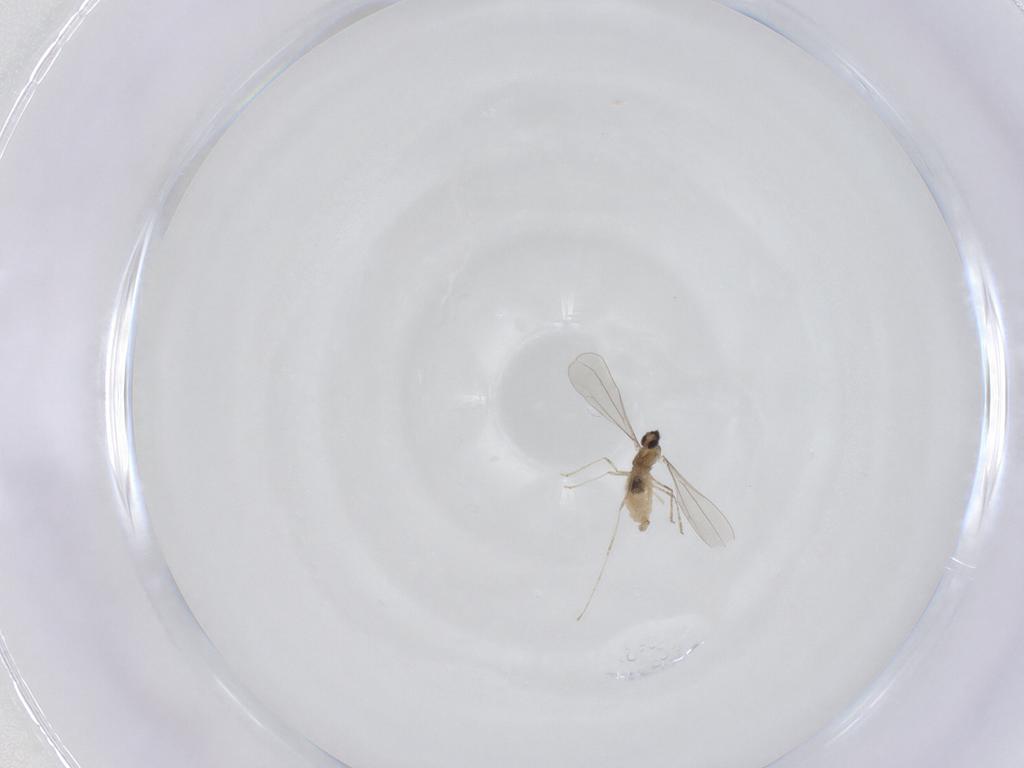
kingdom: Animalia
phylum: Arthropoda
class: Insecta
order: Diptera
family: Cecidomyiidae
